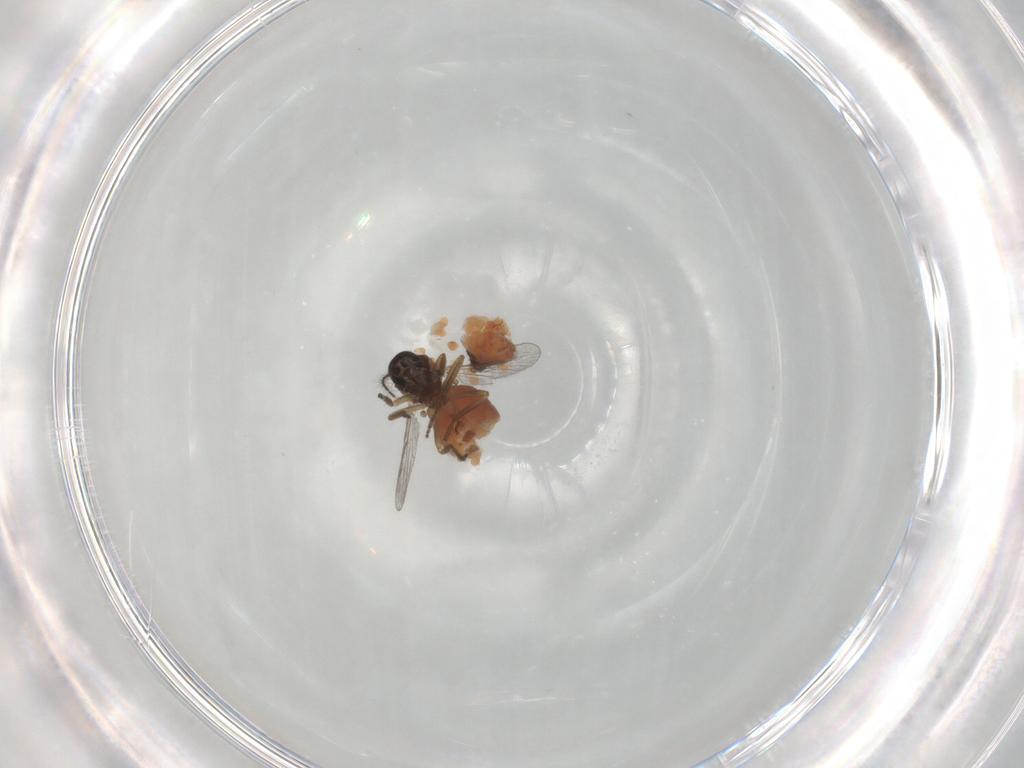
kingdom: Animalia
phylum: Arthropoda
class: Insecta
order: Diptera
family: Ceratopogonidae
